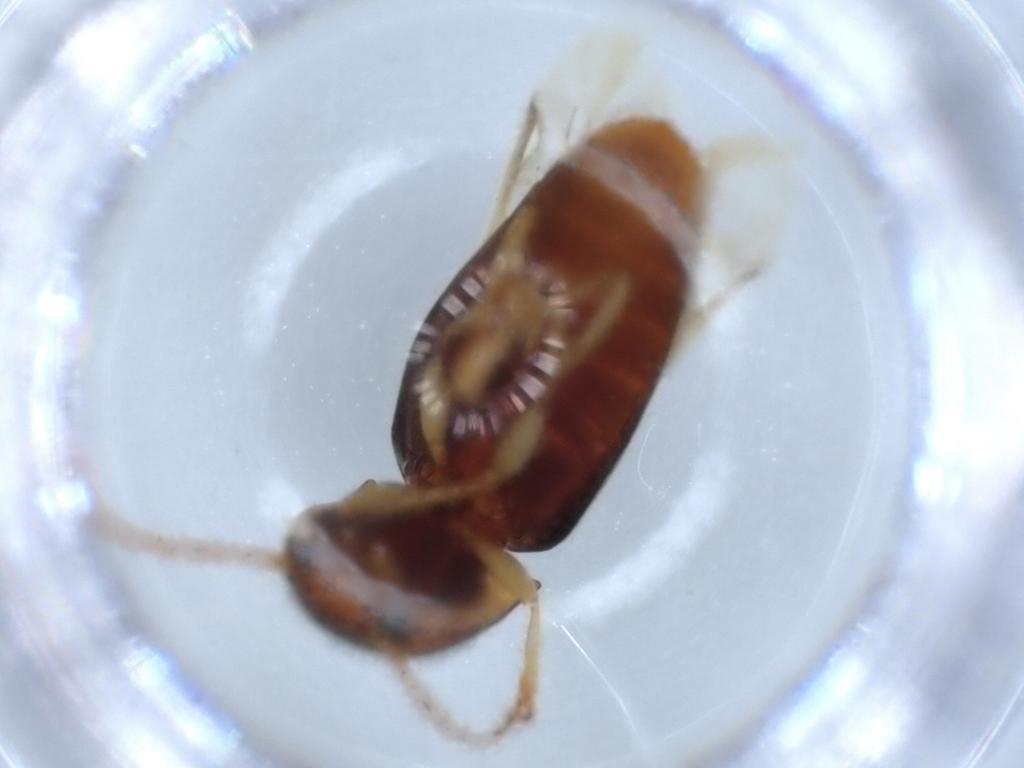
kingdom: Animalia
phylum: Arthropoda
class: Insecta
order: Coleoptera
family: Elateridae
